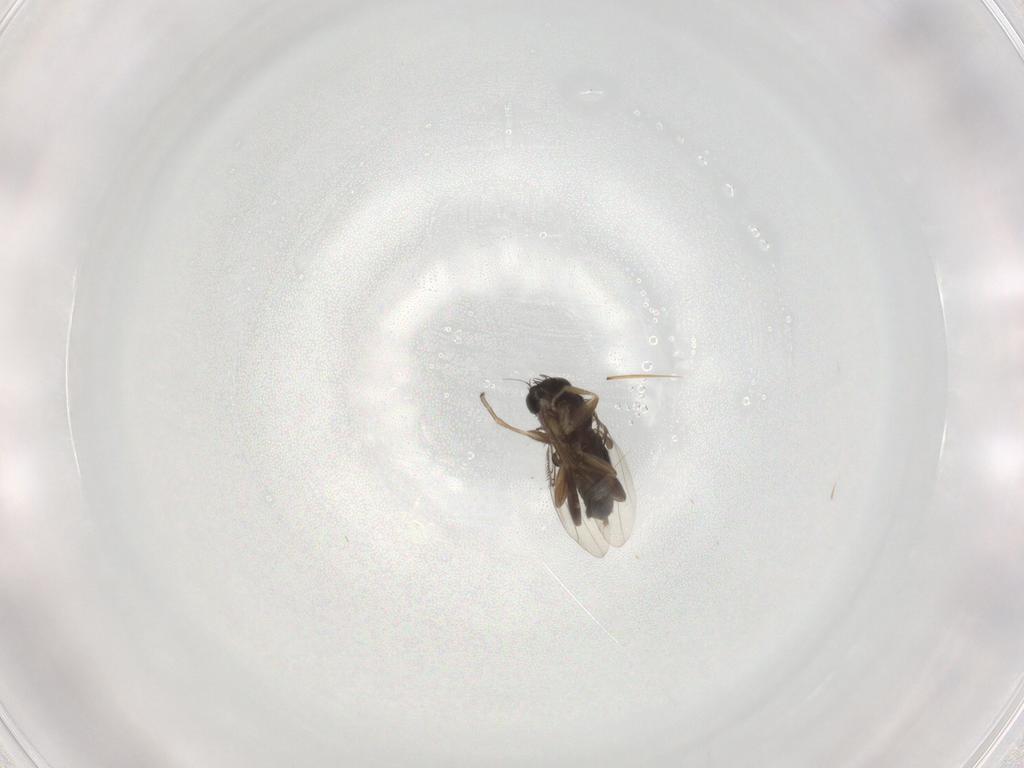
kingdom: Animalia
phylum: Arthropoda
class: Insecta
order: Diptera
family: Phoridae
